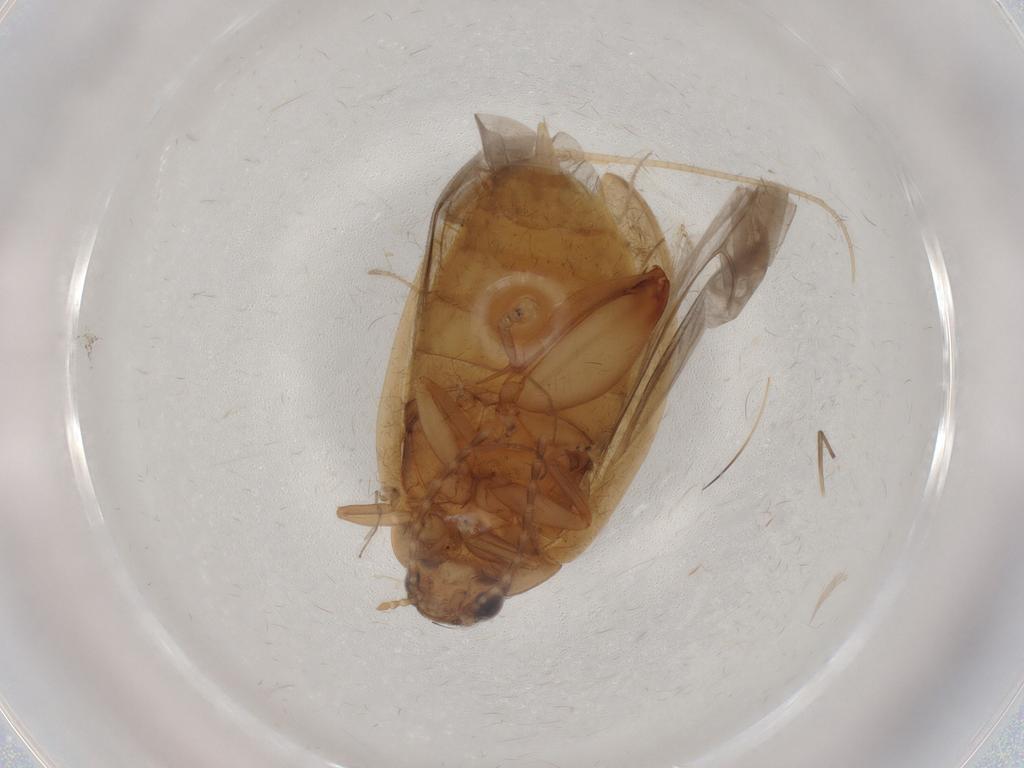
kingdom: Animalia
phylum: Arthropoda
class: Insecta
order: Coleoptera
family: Scirtidae
